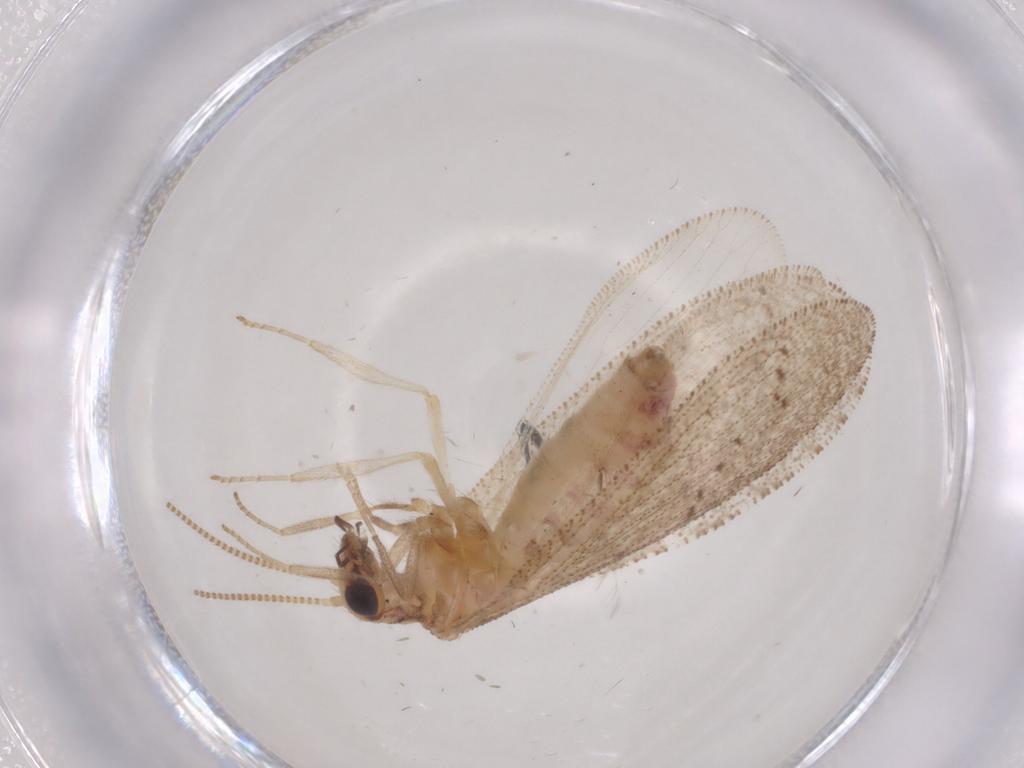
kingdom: Animalia
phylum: Arthropoda
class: Insecta
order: Neuroptera
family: Hemerobiidae
